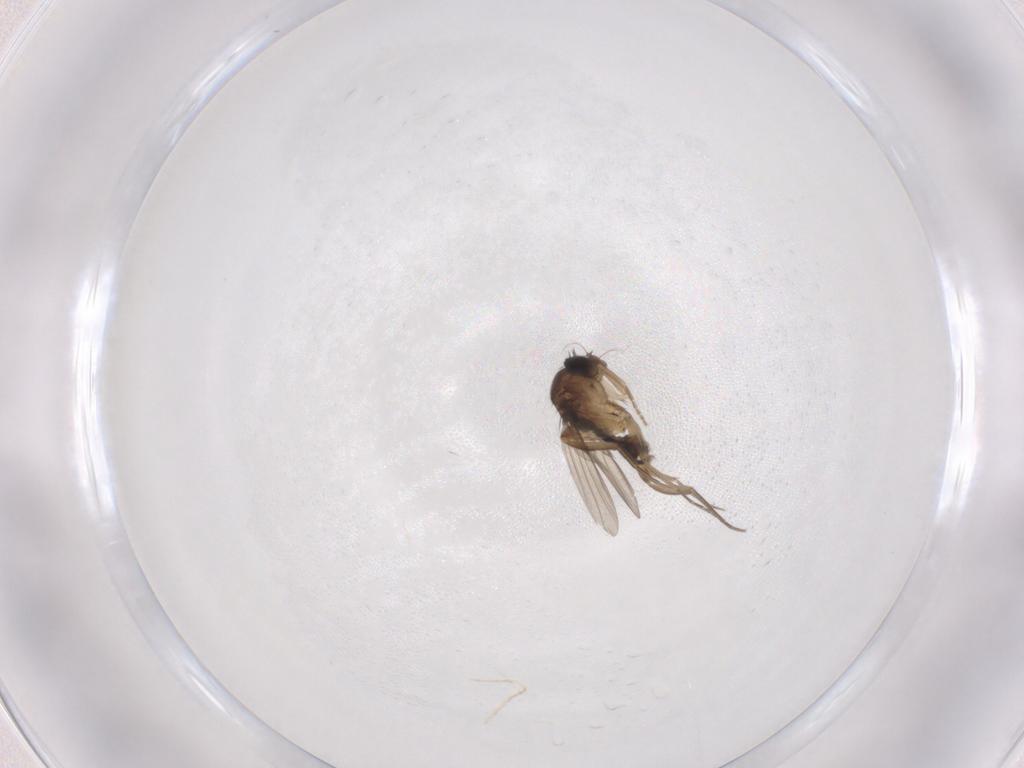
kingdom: Animalia
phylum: Arthropoda
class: Insecta
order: Diptera
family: Phoridae
